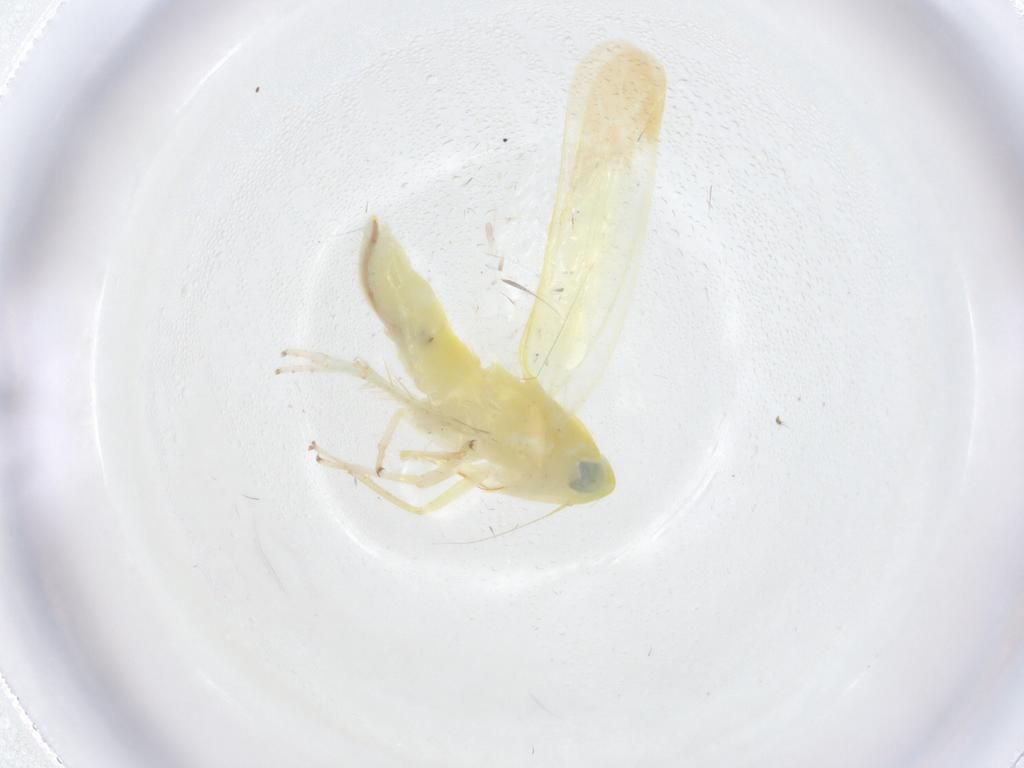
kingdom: Animalia
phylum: Arthropoda
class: Insecta
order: Hemiptera
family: Cicadellidae
